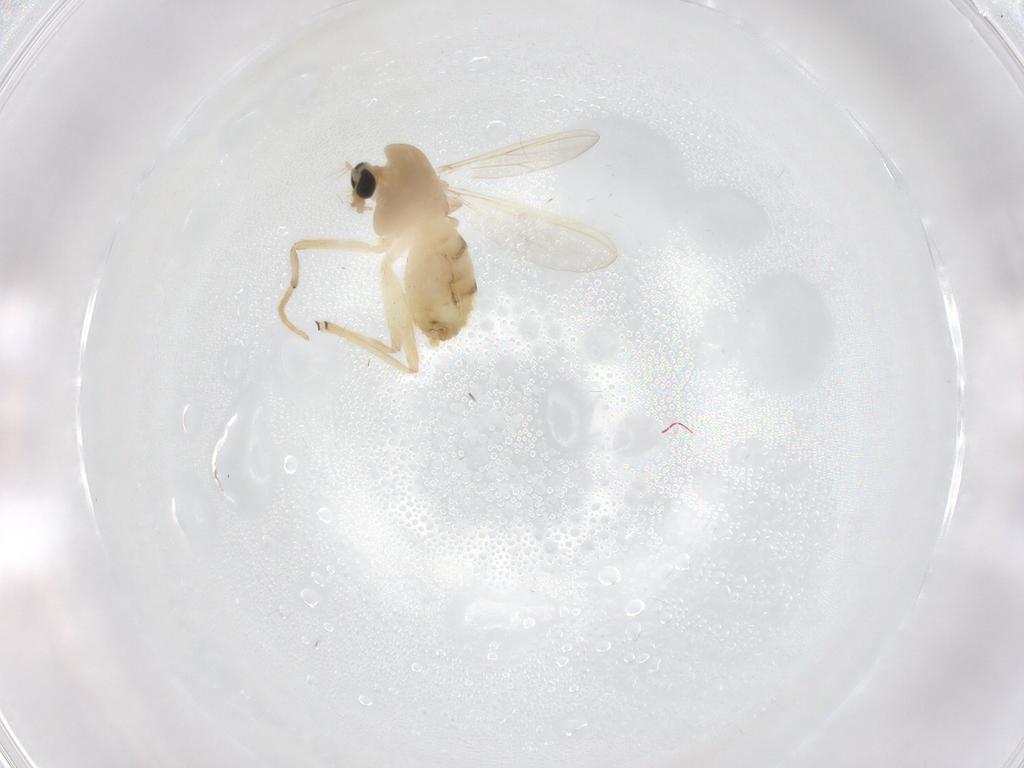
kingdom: Animalia
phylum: Arthropoda
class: Insecta
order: Diptera
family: Chironomidae
